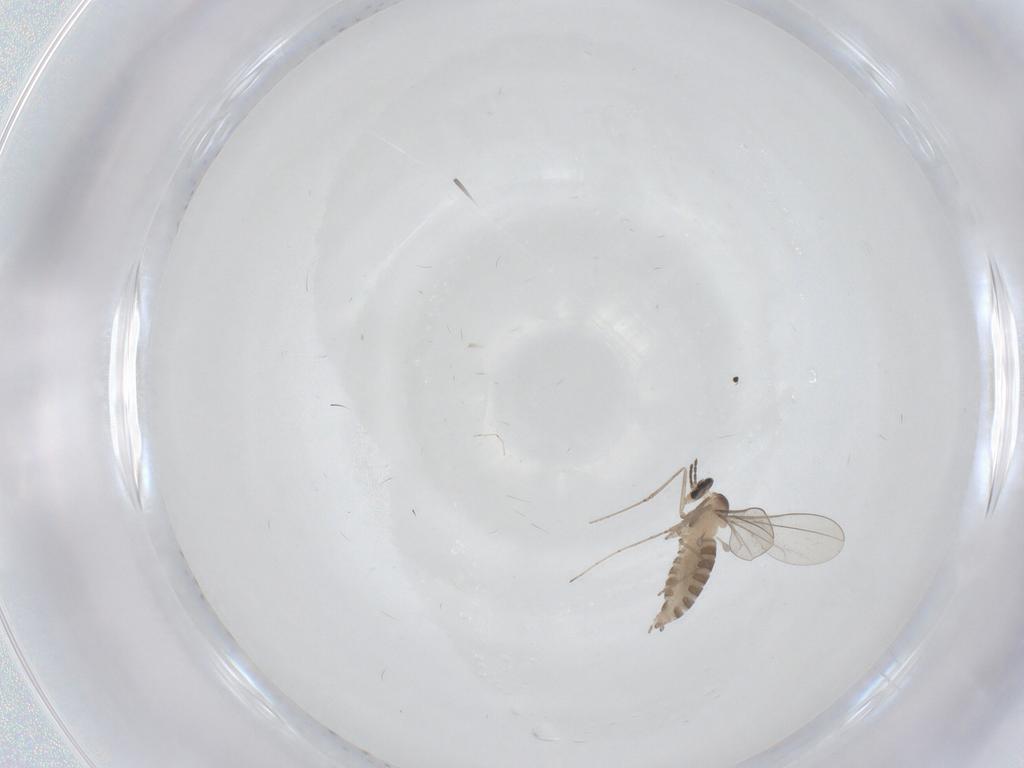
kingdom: Animalia
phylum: Arthropoda
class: Insecta
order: Diptera
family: Cecidomyiidae
